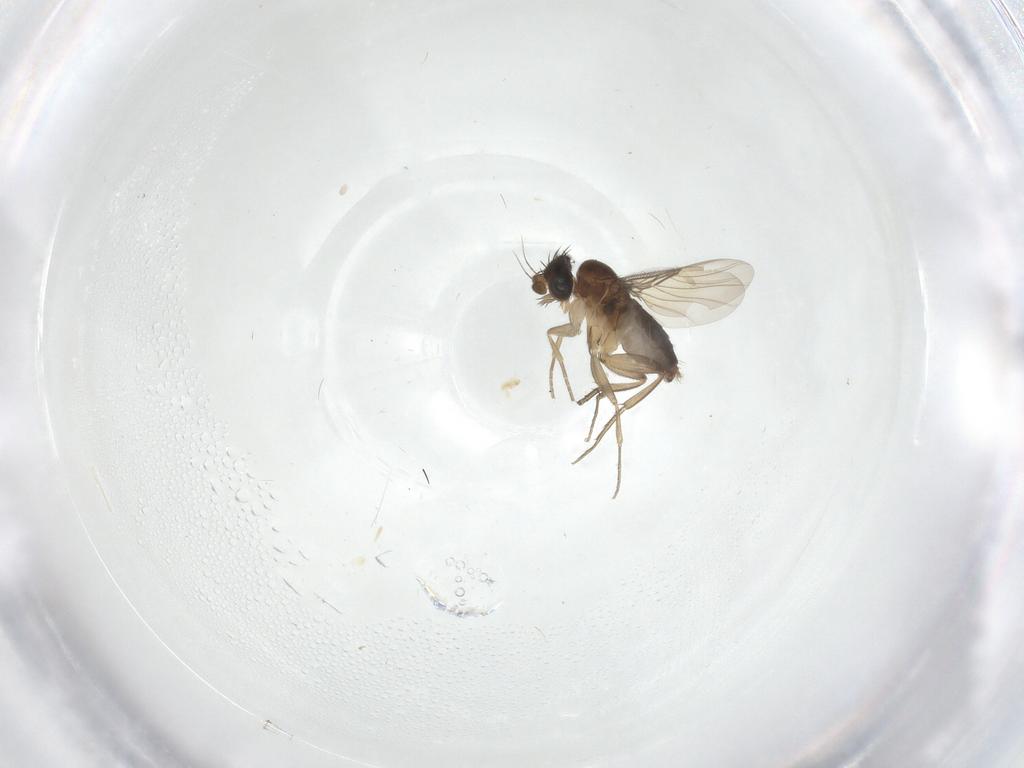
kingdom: Animalia
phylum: Arthropoda
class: Insecta
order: Diptera
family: Phoridae
